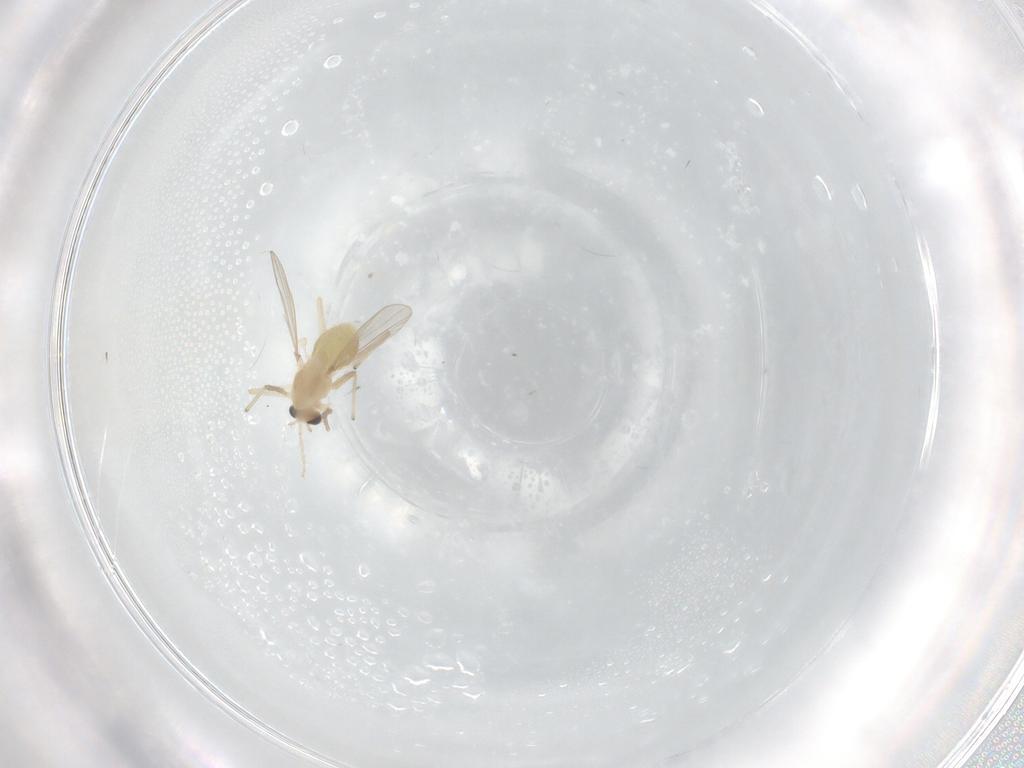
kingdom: Animalia
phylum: Arthropoda
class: Insecta
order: Diptera
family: Chironomidae
